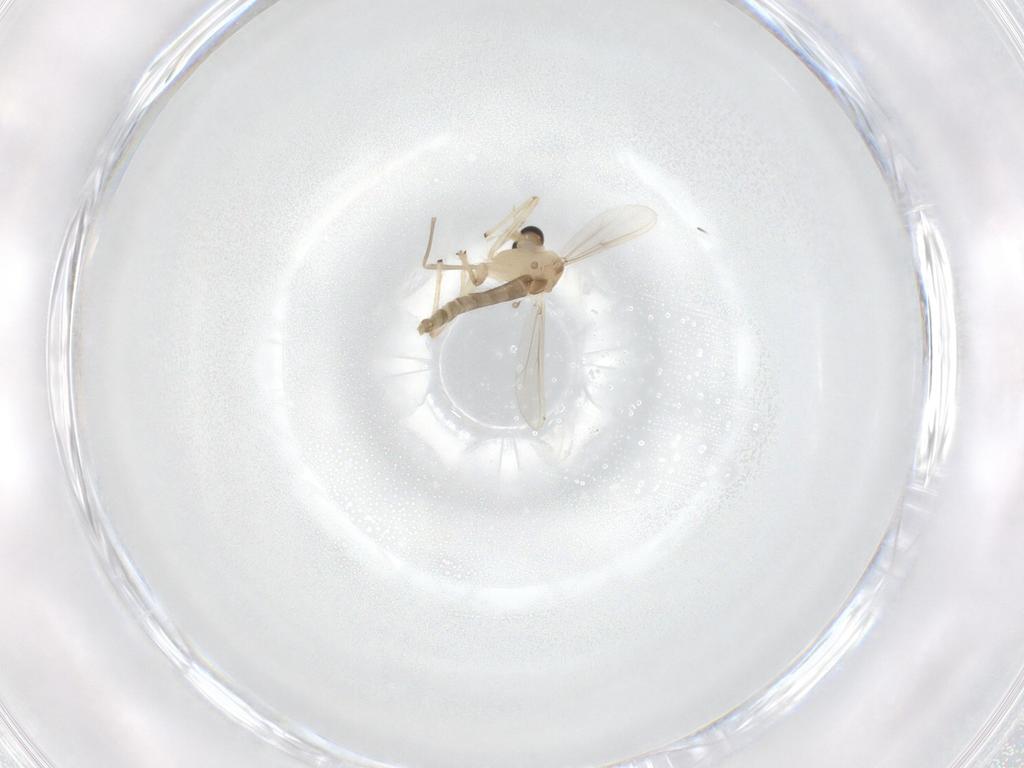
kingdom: Animalia
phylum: Arthropoda
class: Insecta
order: Diptera
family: Chironomidae
